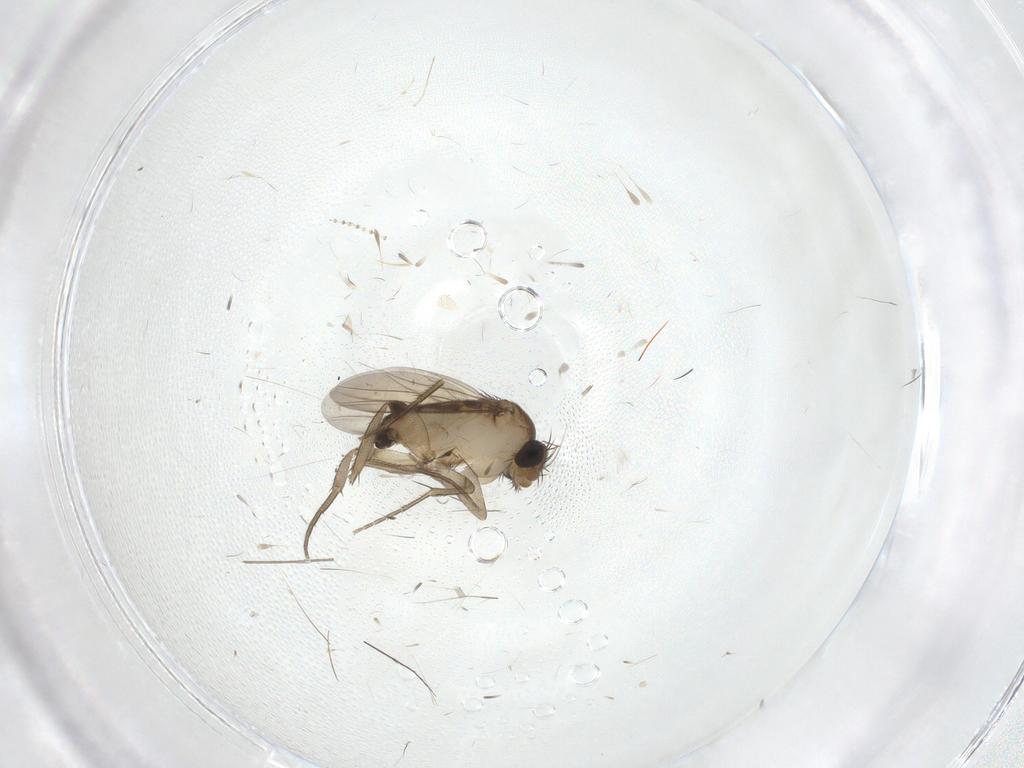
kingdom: Animalia
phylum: Arthropoda
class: Insecta
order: Diptera
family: Phoridae
